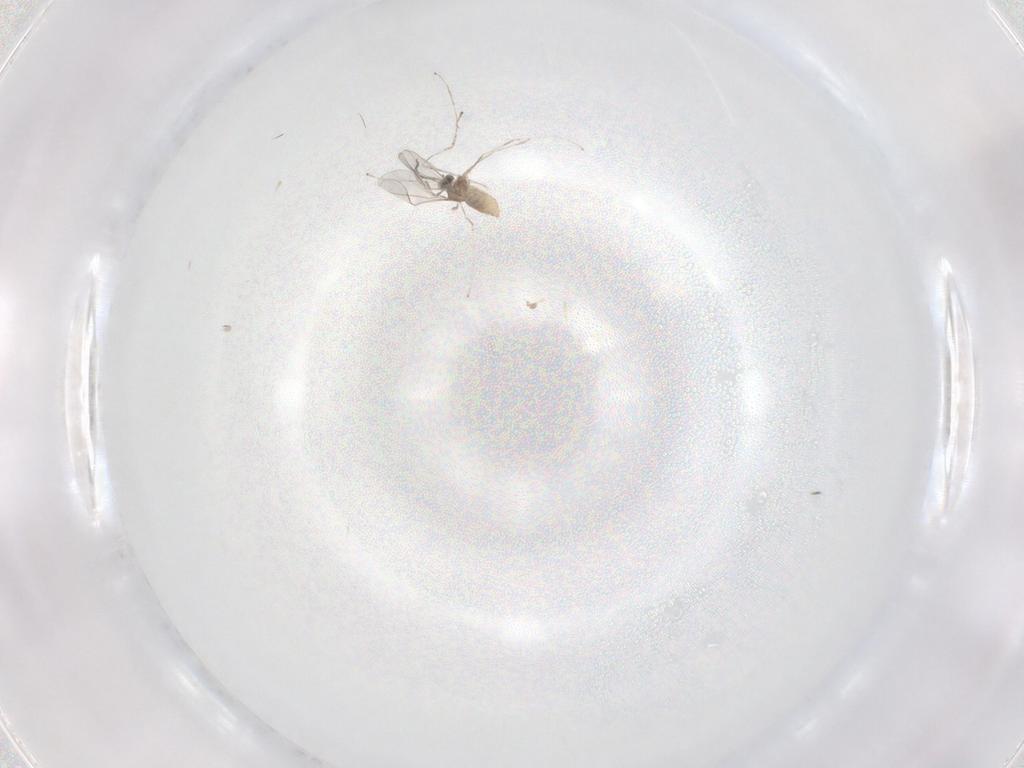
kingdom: Animalia
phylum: Arthropoda
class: Insecta
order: Diptera
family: Cecidomyiidae
